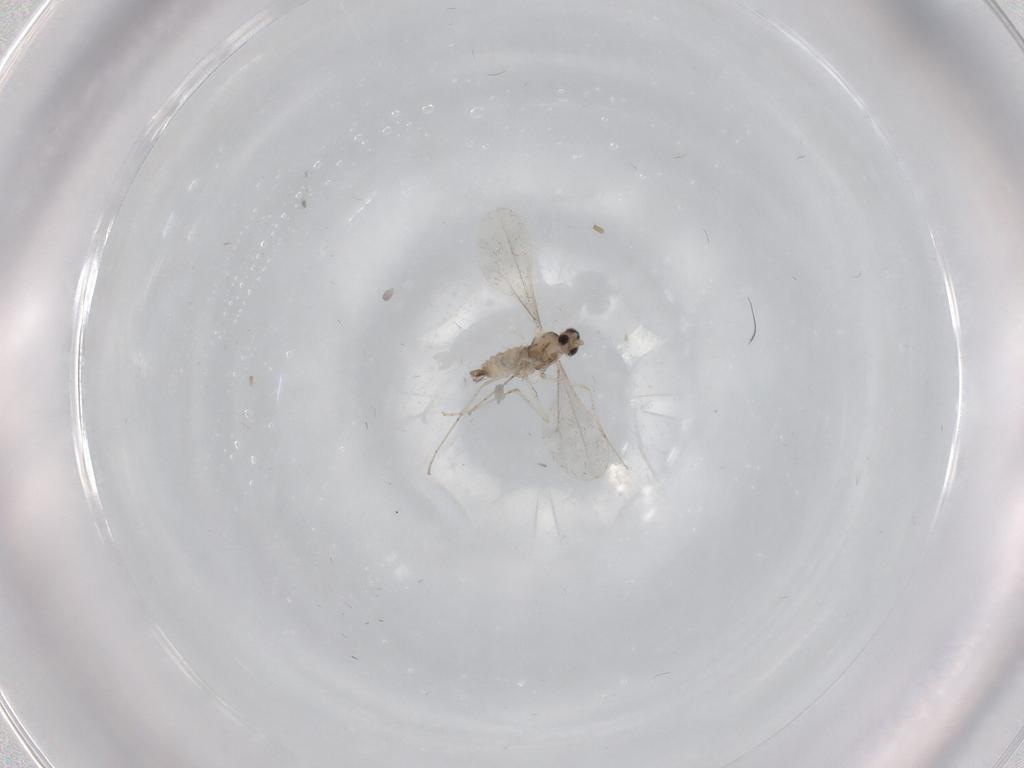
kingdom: Animalia
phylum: Arthropoda
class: Insecta
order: Diptera
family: Cecidomyiidae
